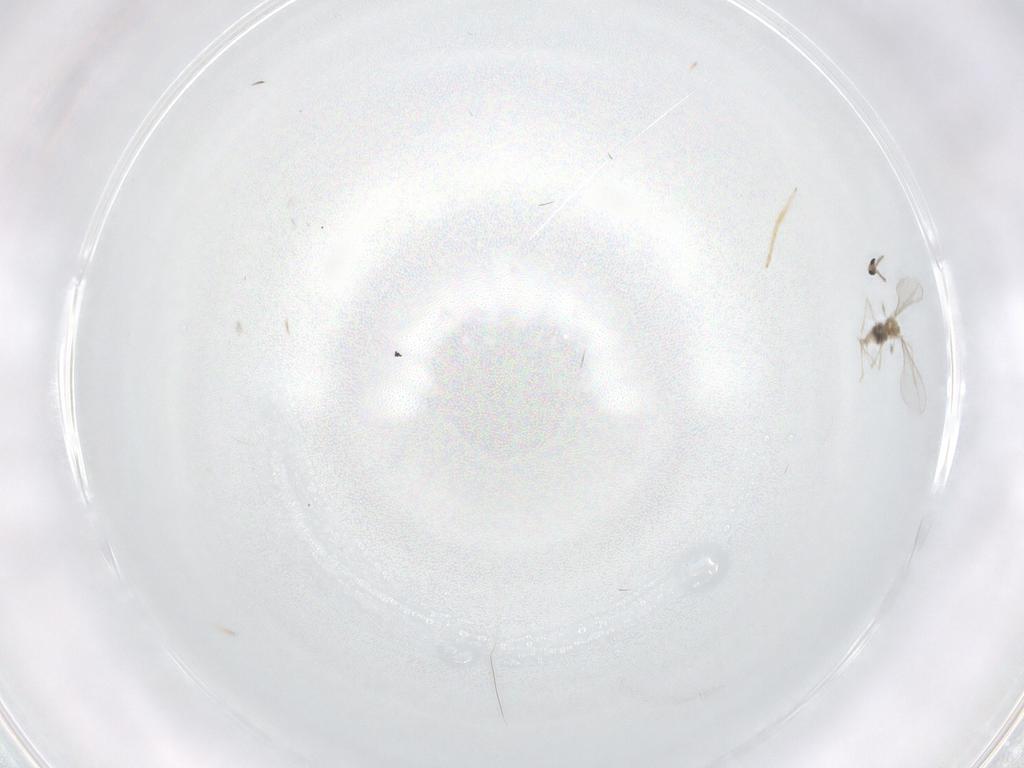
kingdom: Animalia
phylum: Arthropoda
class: Insecta
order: Diptera
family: Cecidomyiidae
